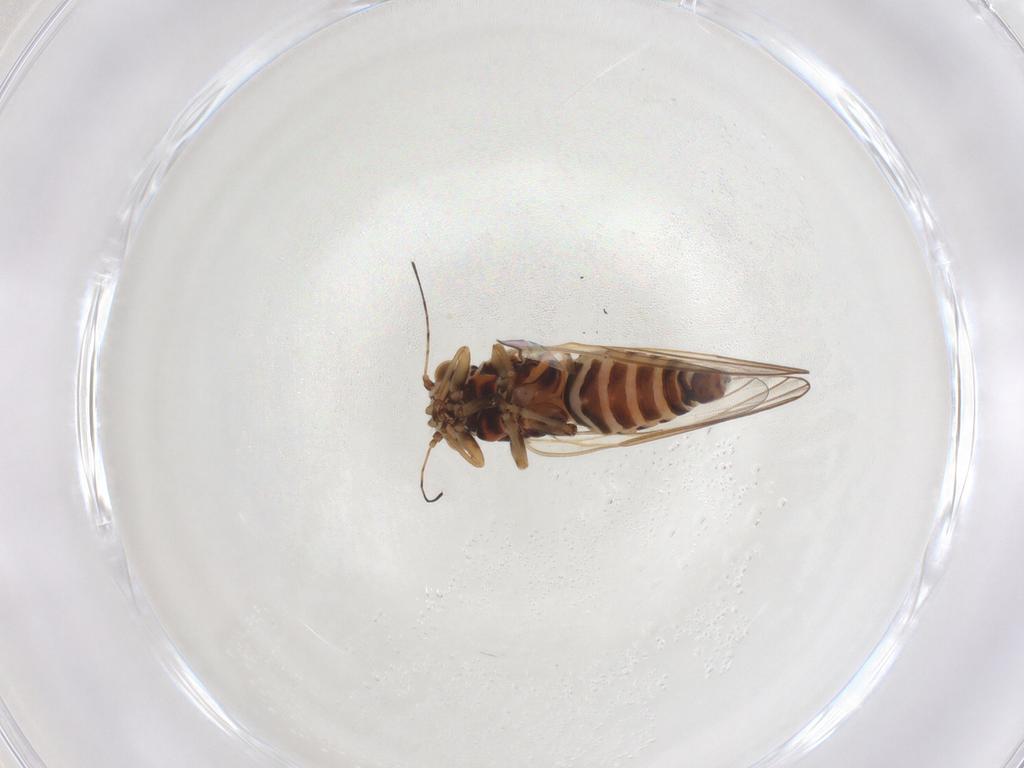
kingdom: Animalia
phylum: Arthropoda
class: Insecta
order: Hemiptera
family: Psyllidae
